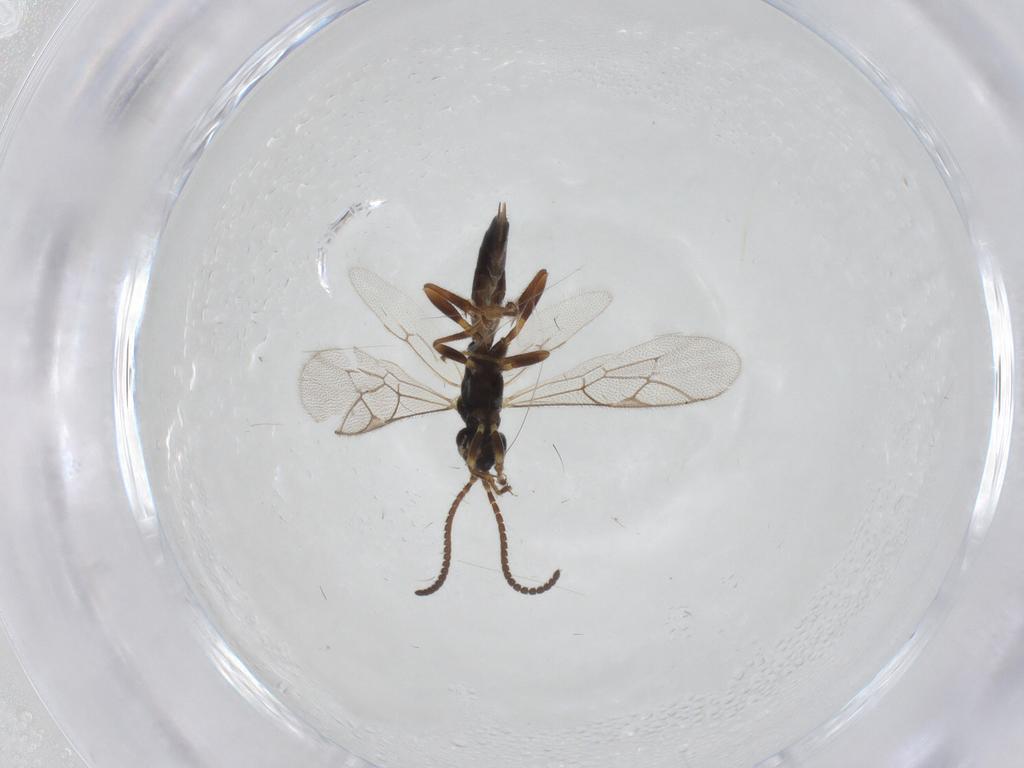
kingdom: Animalia
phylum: Arthropoda
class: Insecta
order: Hymenoptera
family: Ichneumonidae
